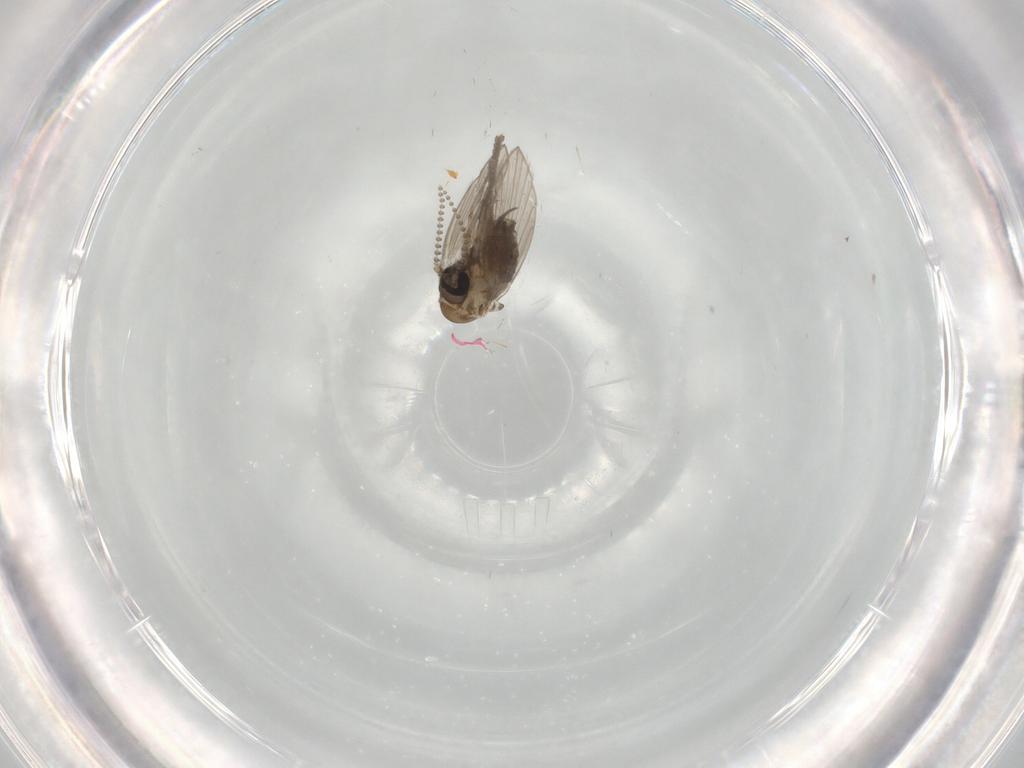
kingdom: Animalia
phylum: Arthropoda
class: Insecta
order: Diptera
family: Psychodidae
